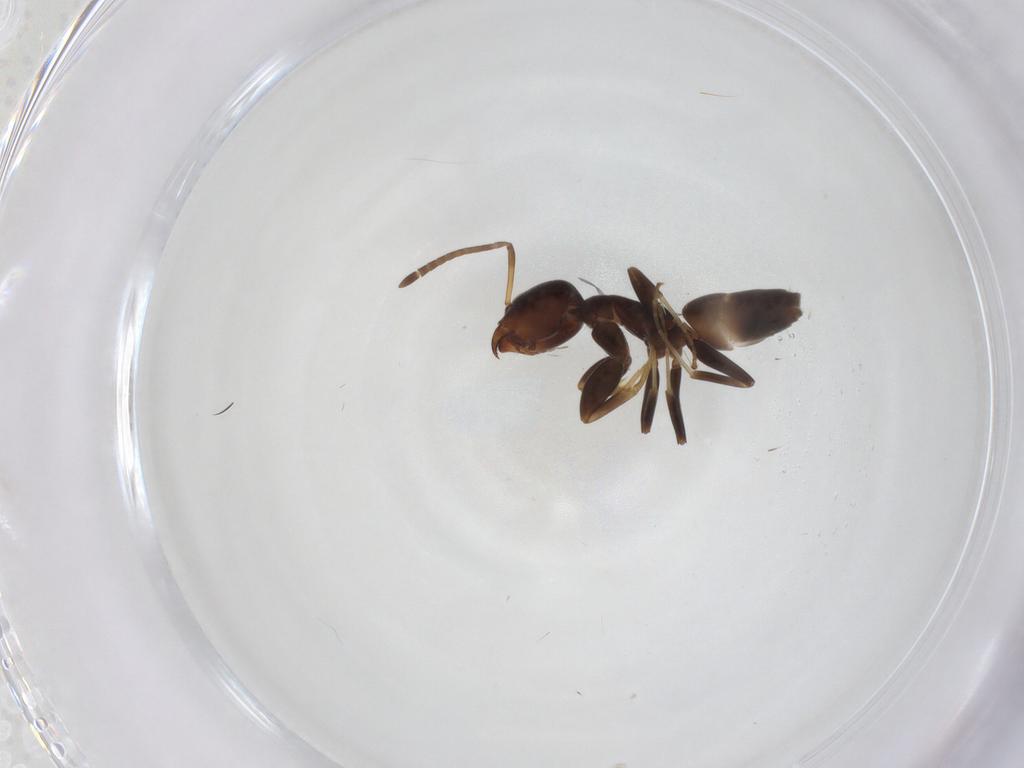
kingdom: Animalia
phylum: Arthropoda
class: Insecta
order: Hymenoptera
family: Formicidae
